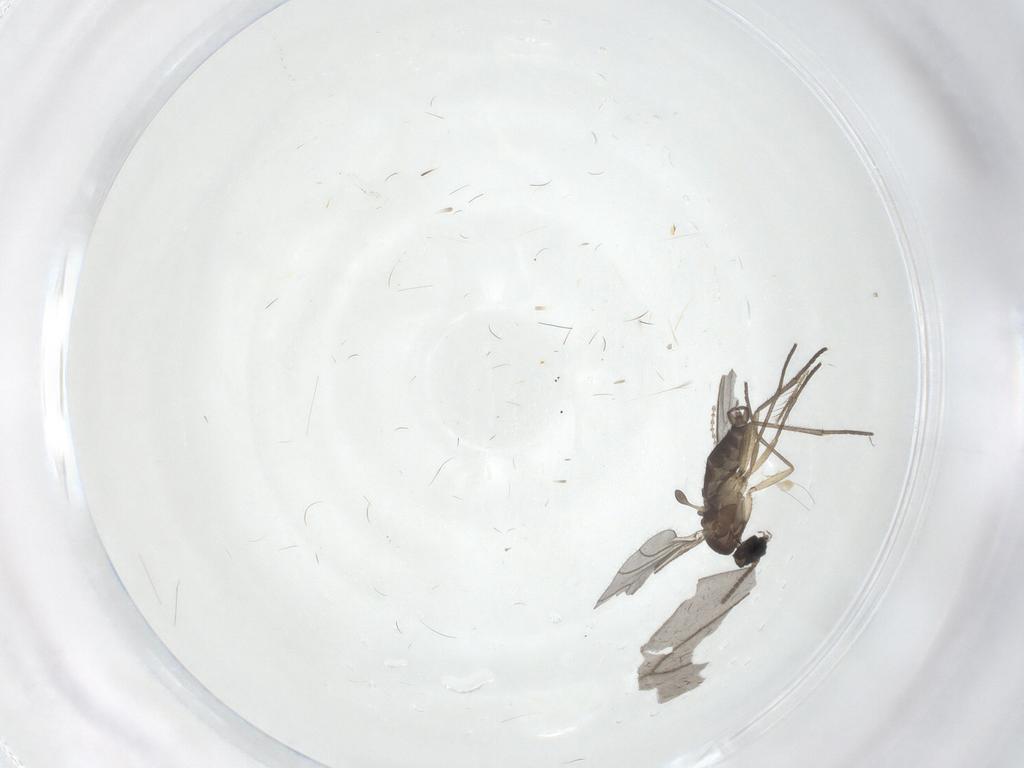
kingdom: Animalia
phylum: Arthropoda
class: Insecta
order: Diptera
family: Sciaridae
